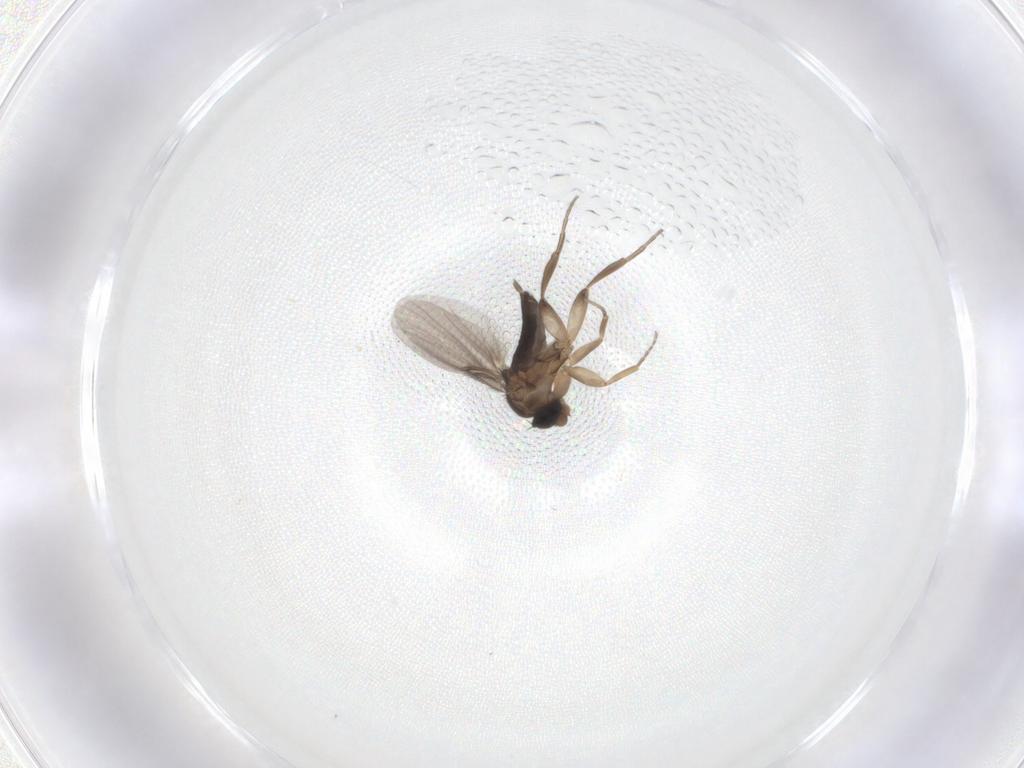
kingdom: Animalia
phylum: Arthropoda
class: Insecta
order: Diptera
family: Phoridae
